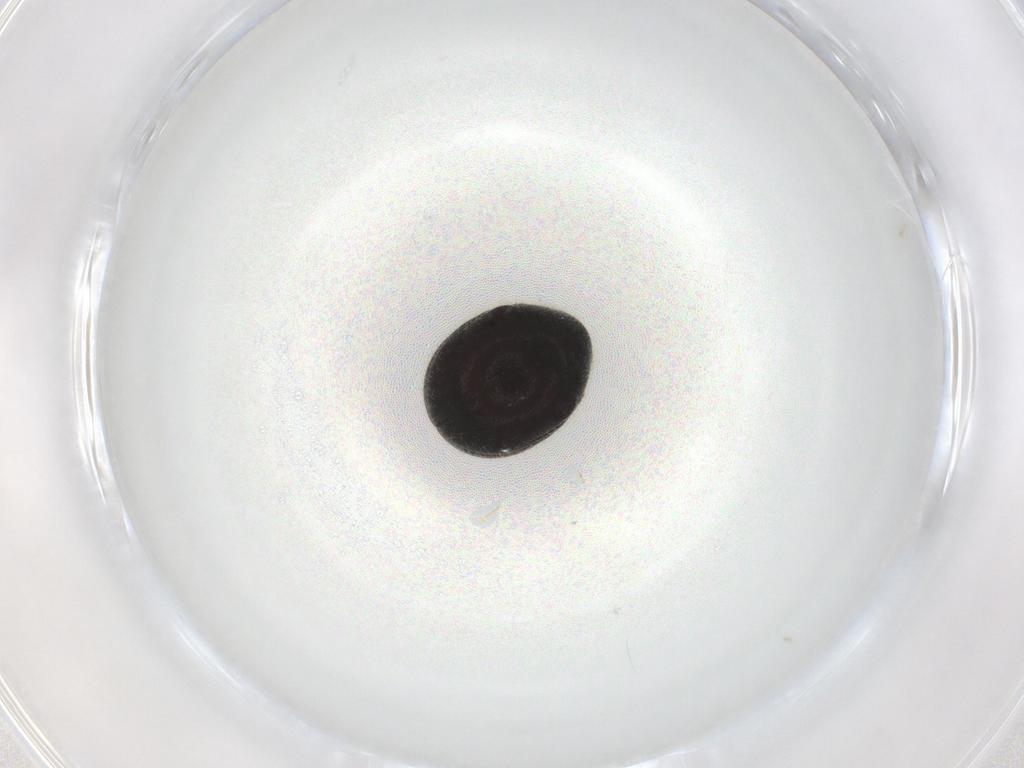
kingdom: Animalia
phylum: Arthropoda
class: Insecta
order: Coleoptera
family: Ptinidae
